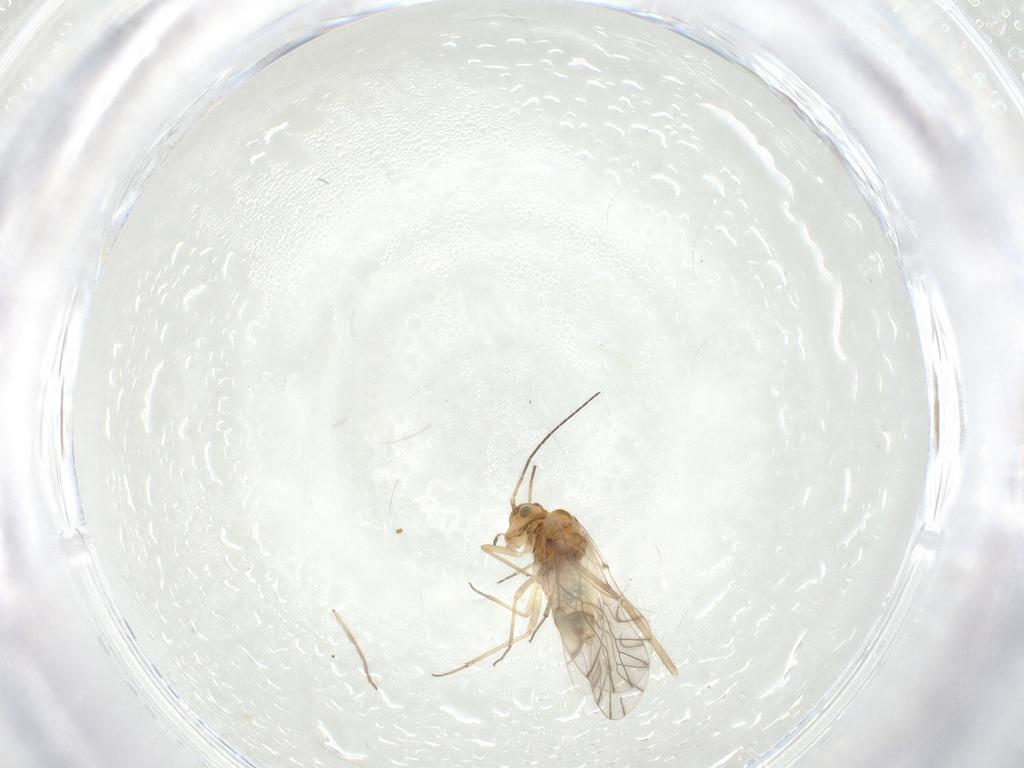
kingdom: Animalia
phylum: Arthropoda
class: Insecta
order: Psocodea
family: Lachesillidae
